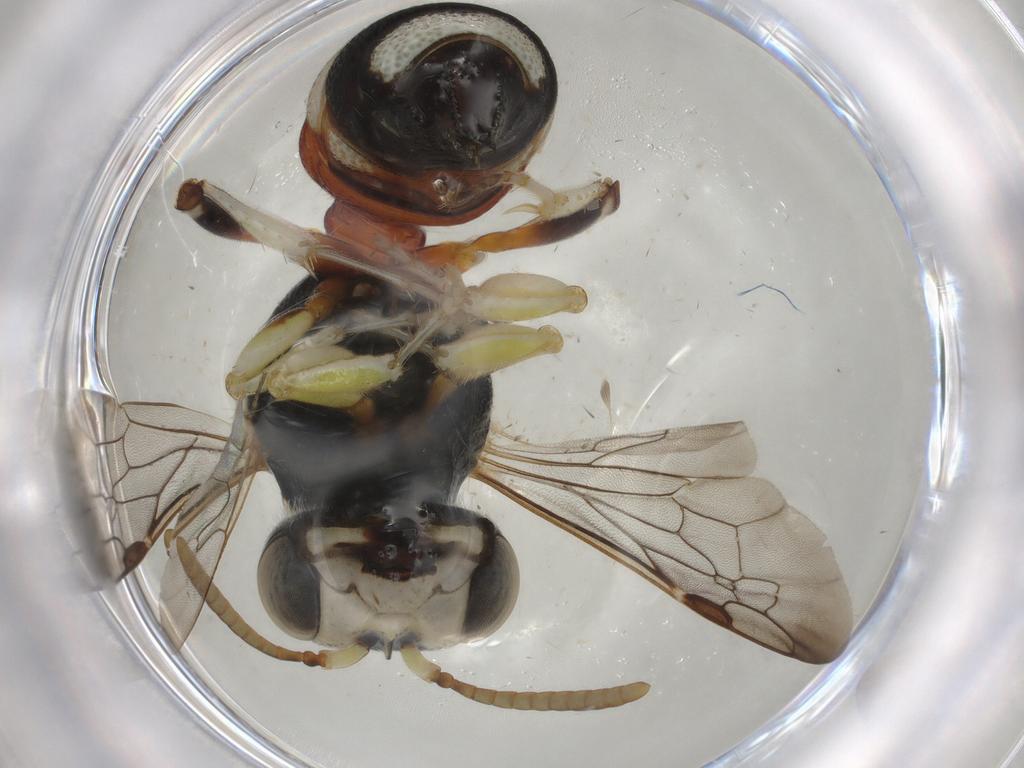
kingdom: Animalia
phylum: Arthropoda
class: Insecta
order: Hymenoptera
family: Crabronidae
